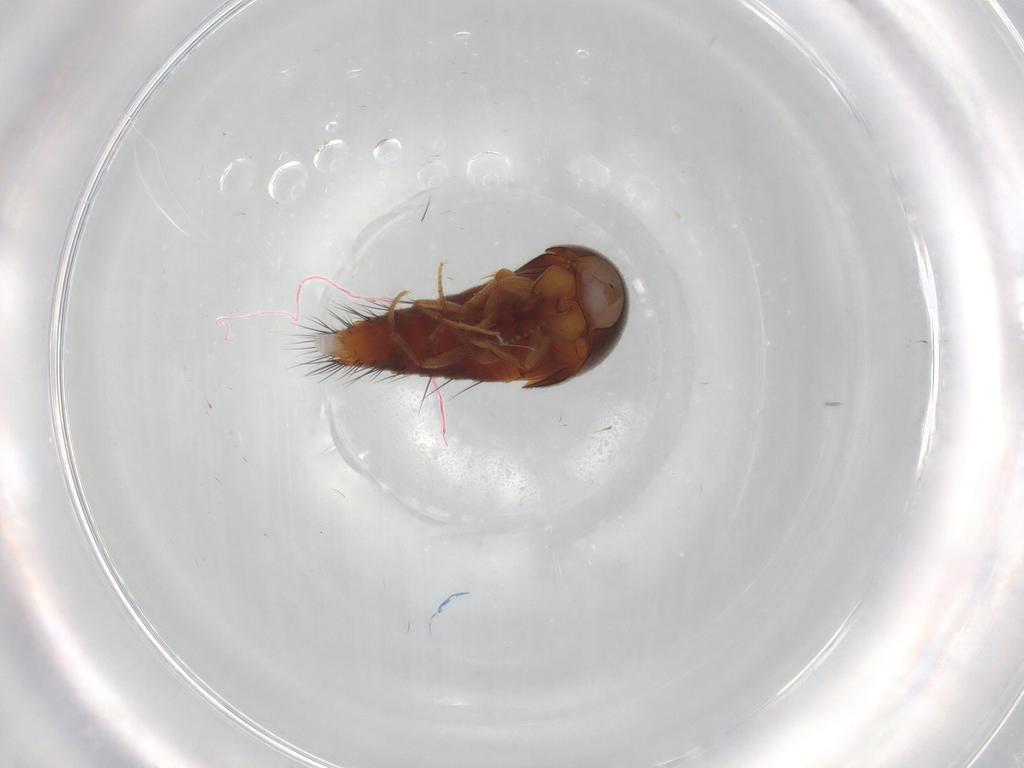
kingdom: Animalia
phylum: Arthropoda
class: Insecta
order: Coleoptera
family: Staphylinidae
